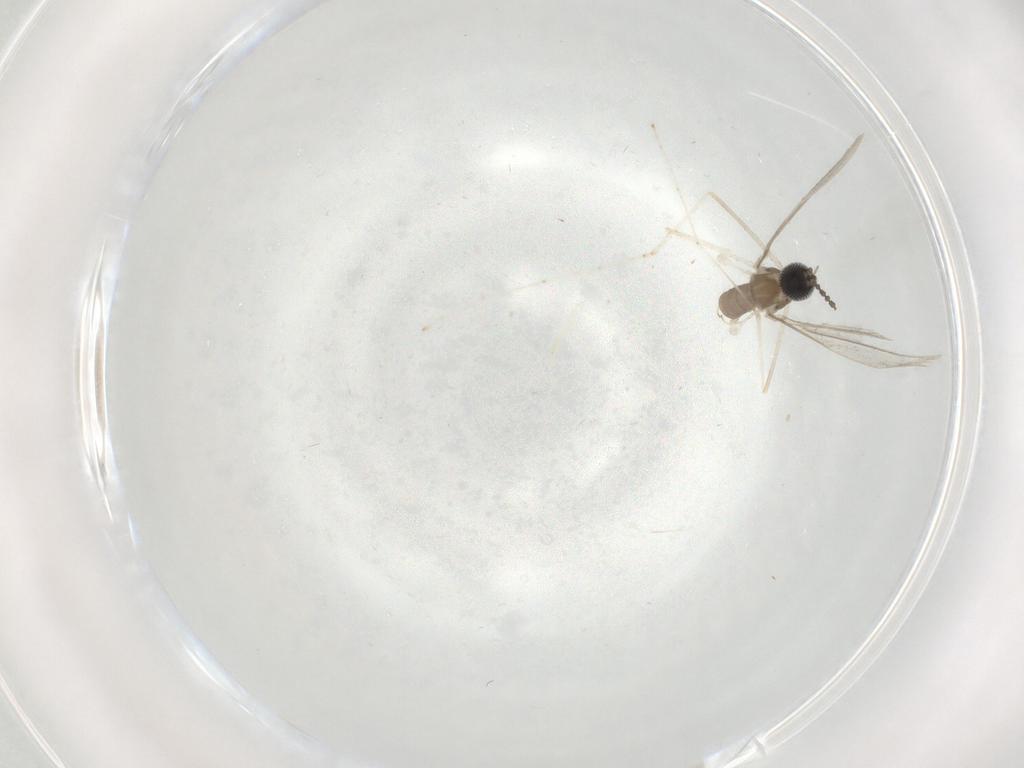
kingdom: Animalia
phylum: Arthropoda
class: Insecta
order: Diptera
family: Cecidomyiidae
